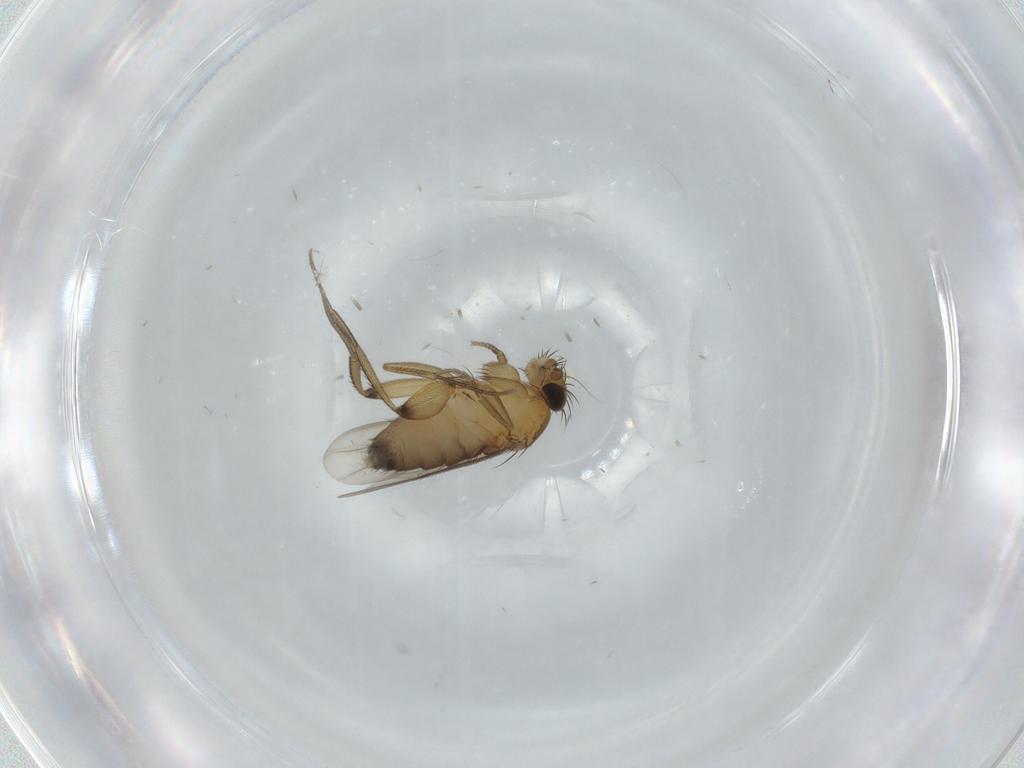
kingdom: Animalia
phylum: Arthropoda
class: Insecta
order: Diptera
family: Phoridae
